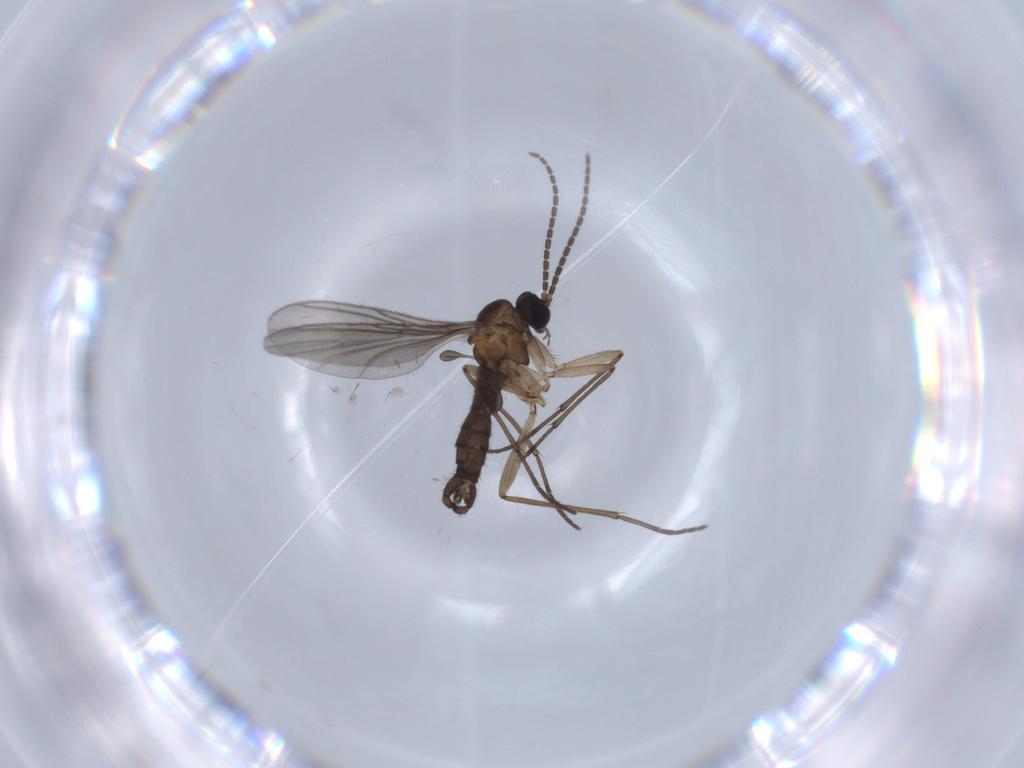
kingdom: Animalia
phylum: Arthropoda
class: Insecta
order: Diptera
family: Sciaridae
